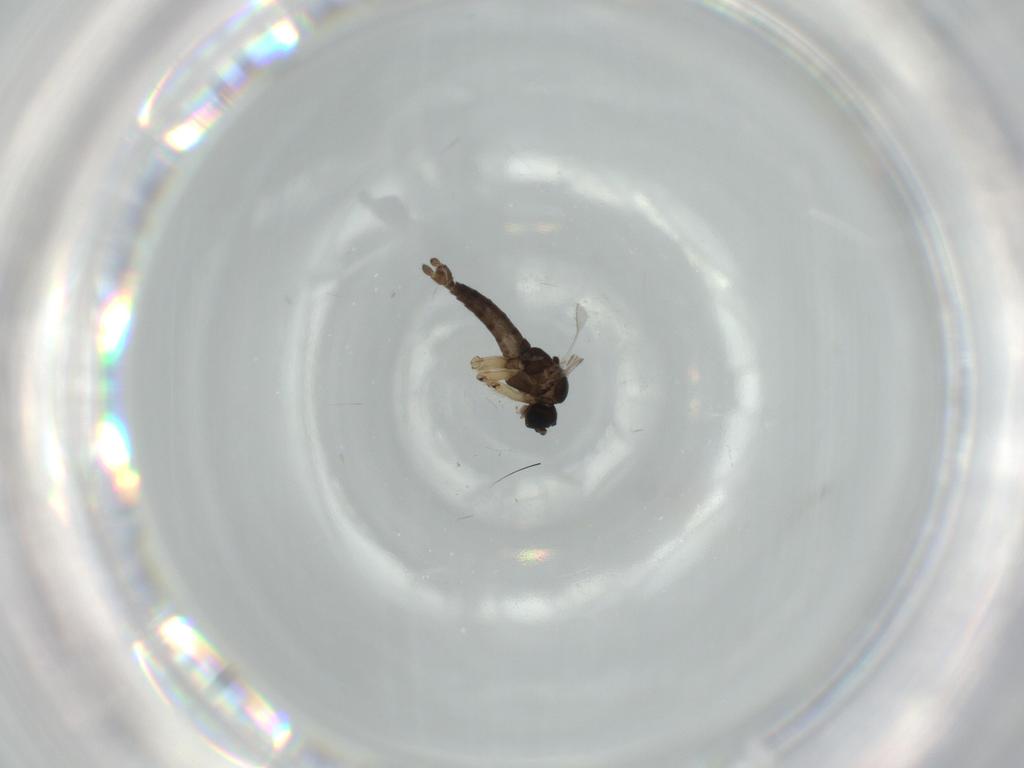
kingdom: Animalia
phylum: Arthropoda
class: Insecta
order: Diptera
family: Sciaridae
